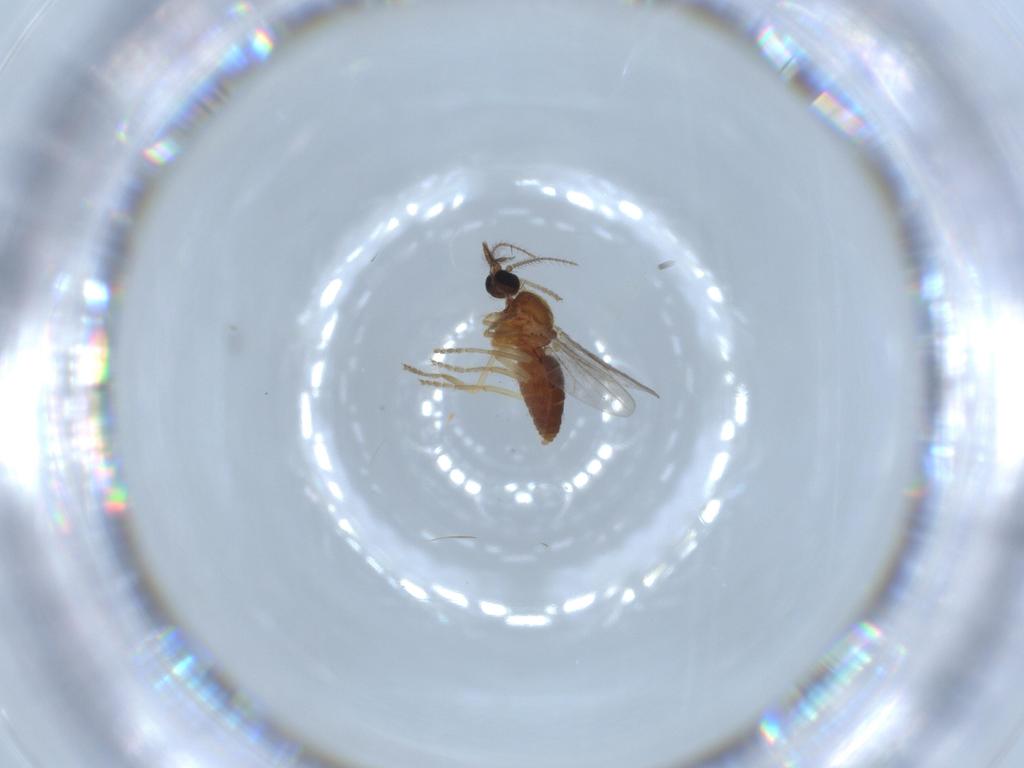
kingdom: Animalia
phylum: Arthropoda
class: Insecta
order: Diptera
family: Ceratopogonidae
